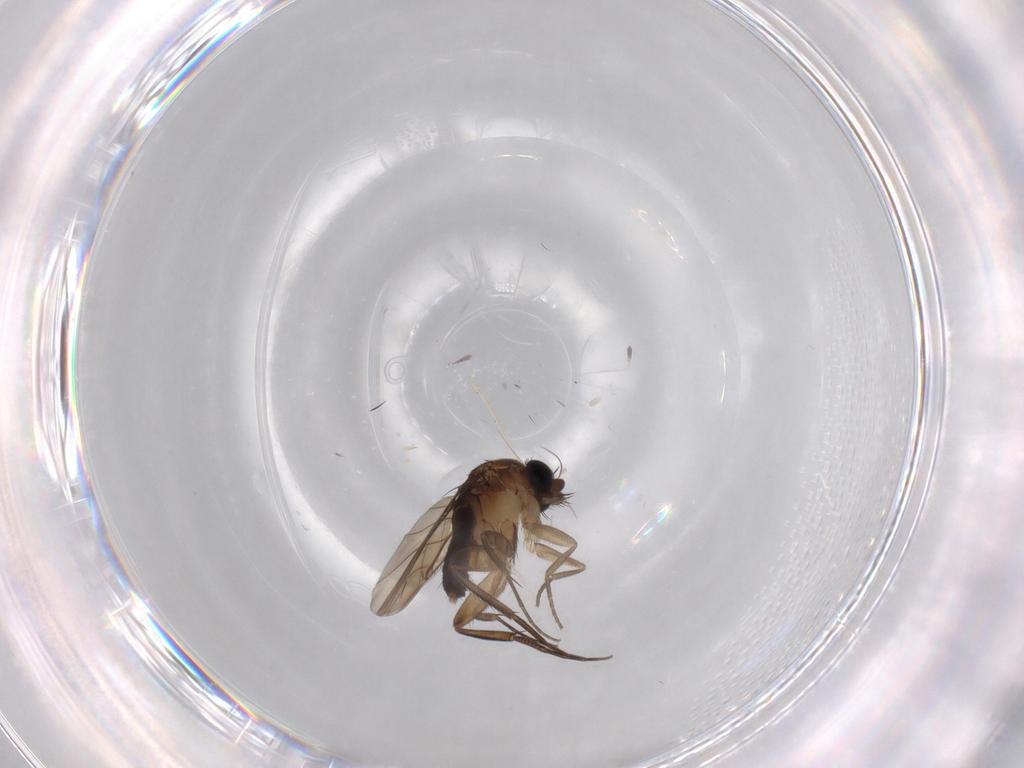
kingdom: Animalia
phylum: Arthropoda
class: Insecta
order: Diptera
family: Phoridae
